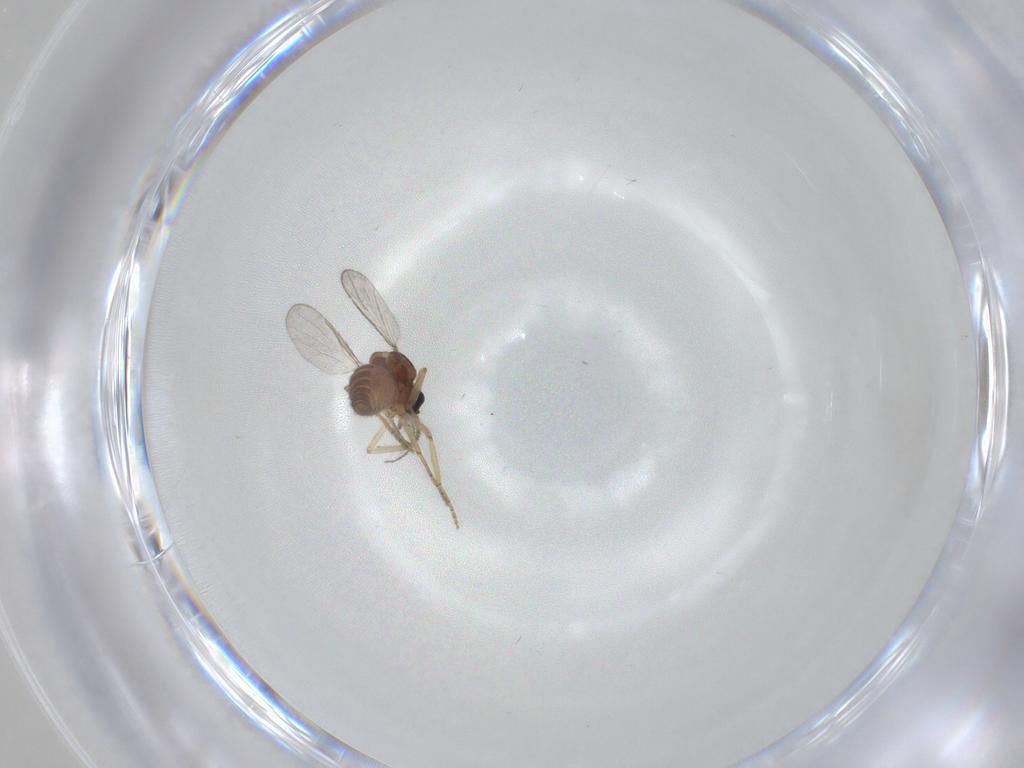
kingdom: Animalia
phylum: Arthropoda
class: Insecta
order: Diptera
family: Ceratopogonidae
